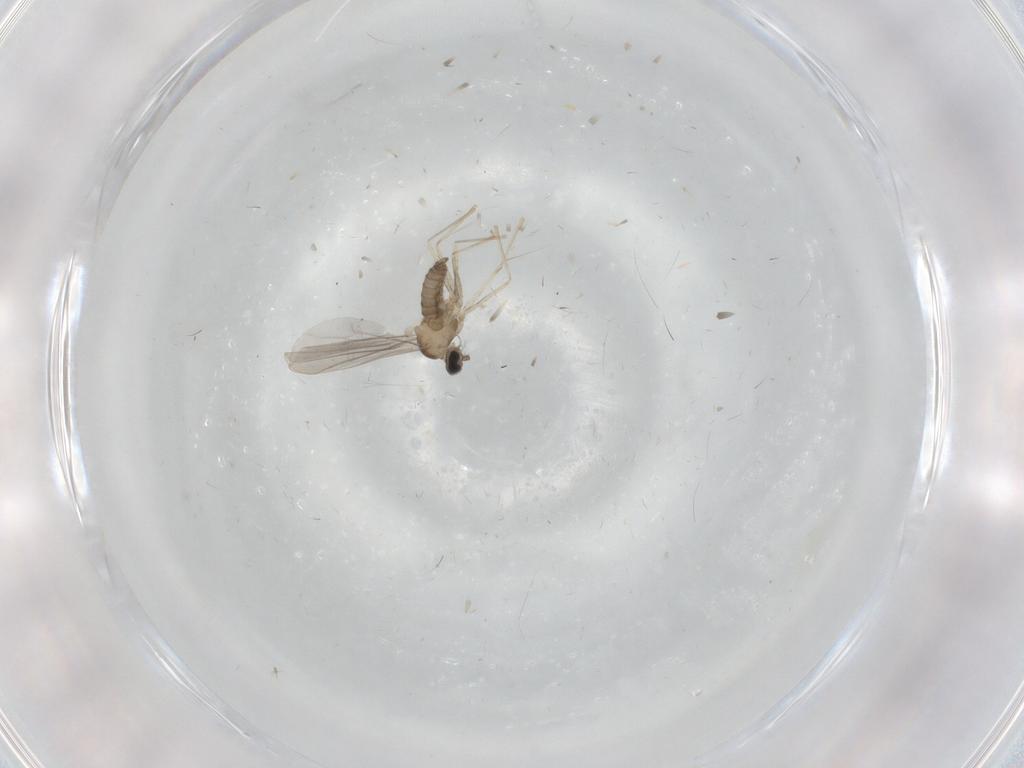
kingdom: Animalia
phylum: Arthropoda
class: Insecta
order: Diptera
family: Cecidomyiidae
